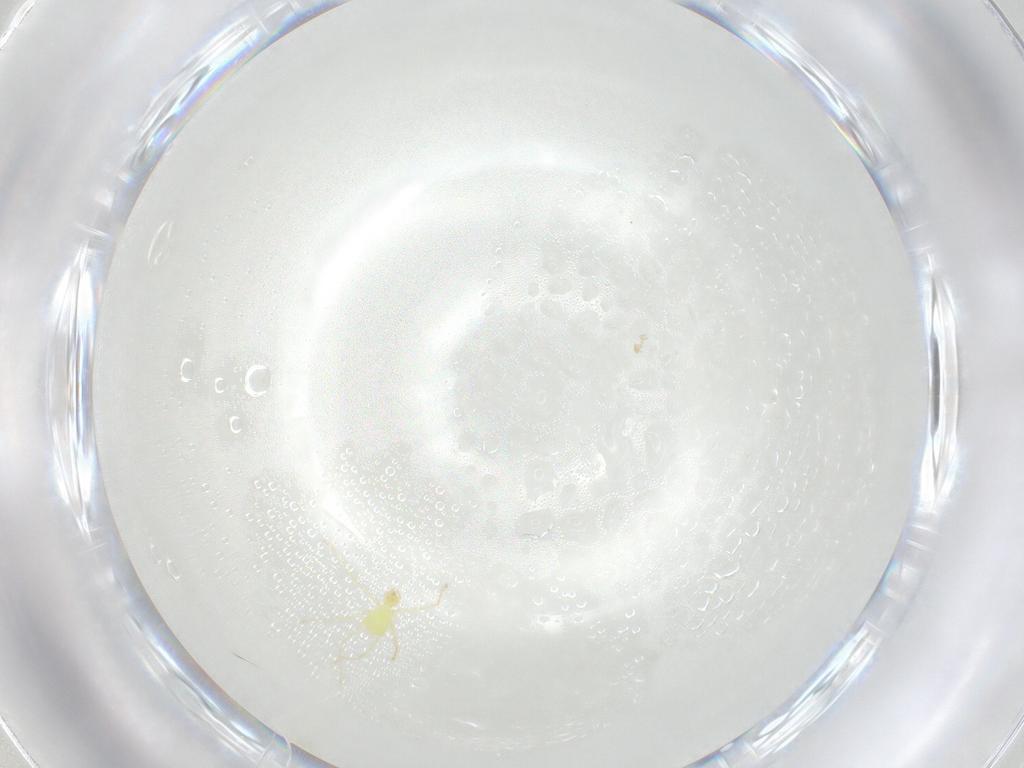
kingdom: Animalia
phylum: Arthropoda
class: Arachnida
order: Trombidiformes
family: Erythraeidae
